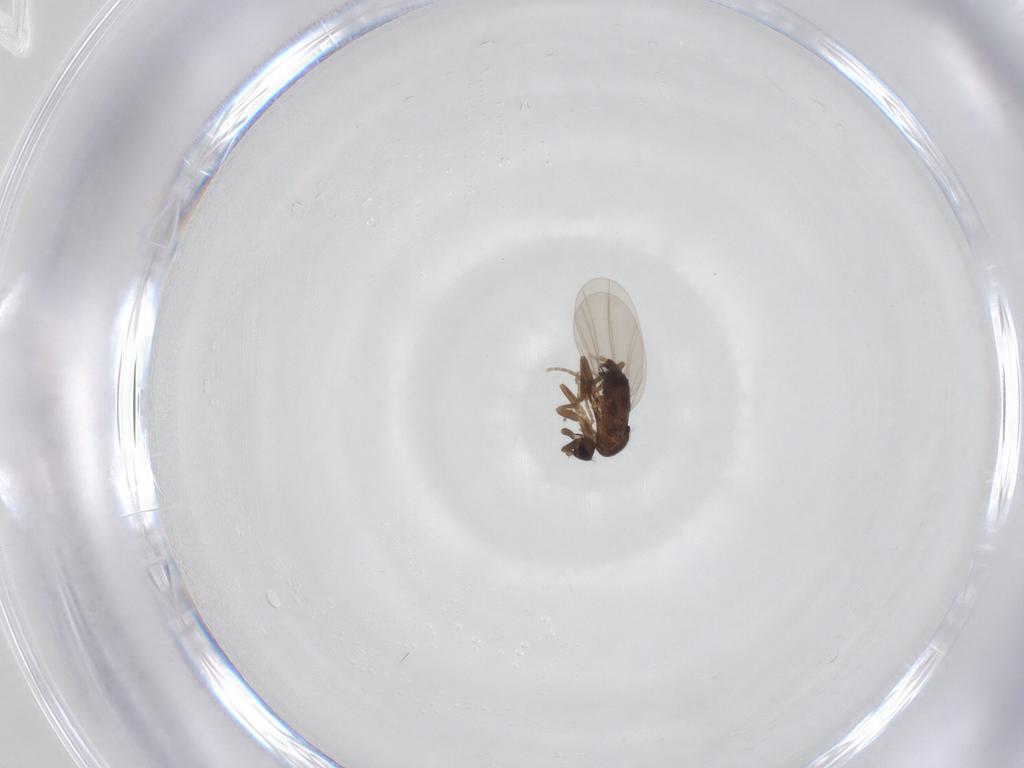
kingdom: Animalia
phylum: Arthropoda
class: Insecta
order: Diptera
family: Phoridae
